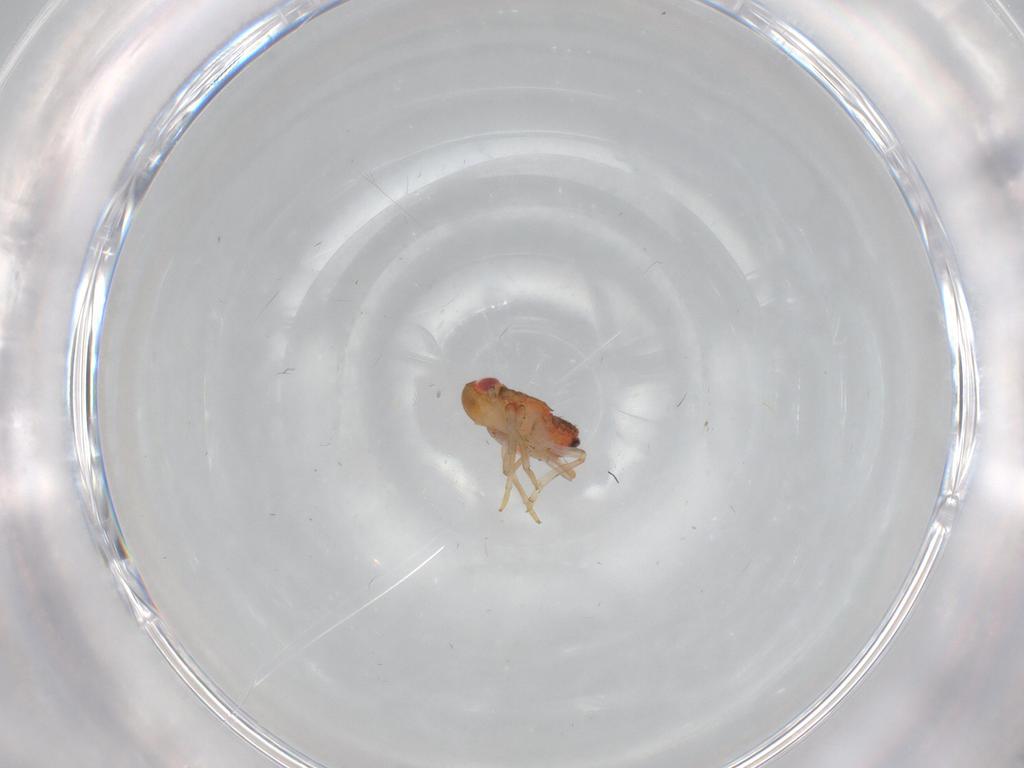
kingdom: Animalia
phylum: Arthropoda
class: Insecta
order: Hemiptera
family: Issidae
